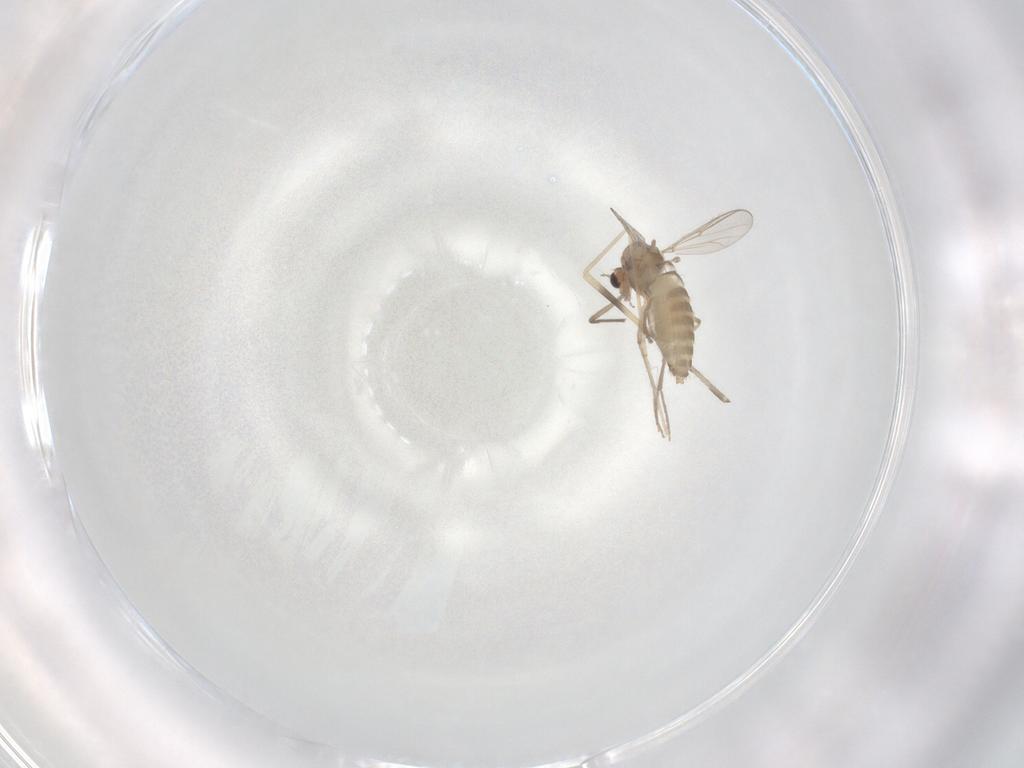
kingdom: Animalia
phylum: Arthropoda
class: Insecta
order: Diptera
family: Chironomidae
